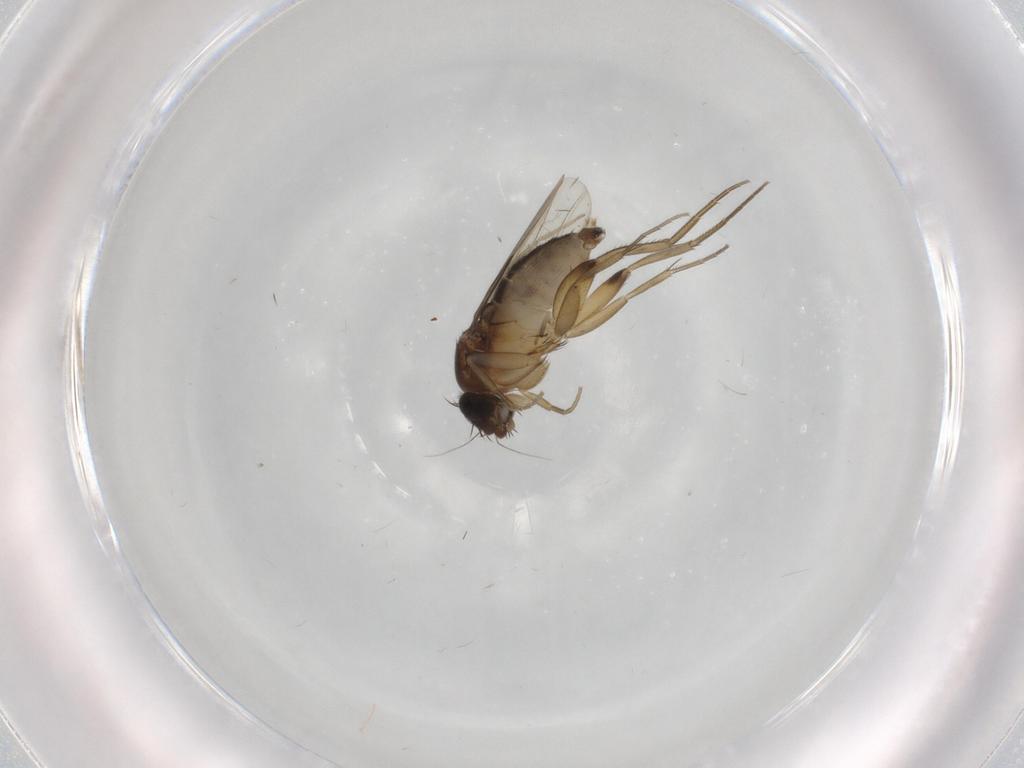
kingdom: Animalia
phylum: Arthropoda
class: Insecta
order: Diptera
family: Phoridae
